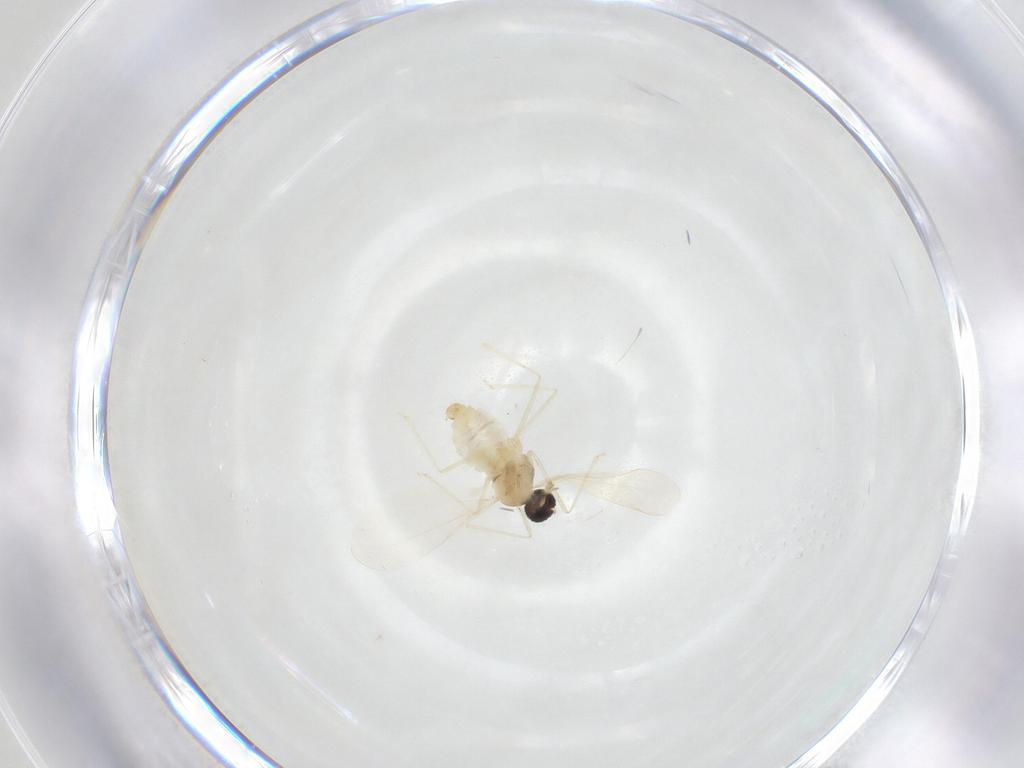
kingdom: Animalia
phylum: Arthropoda
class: Insecta
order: Diptera
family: Cecidomyiidae
